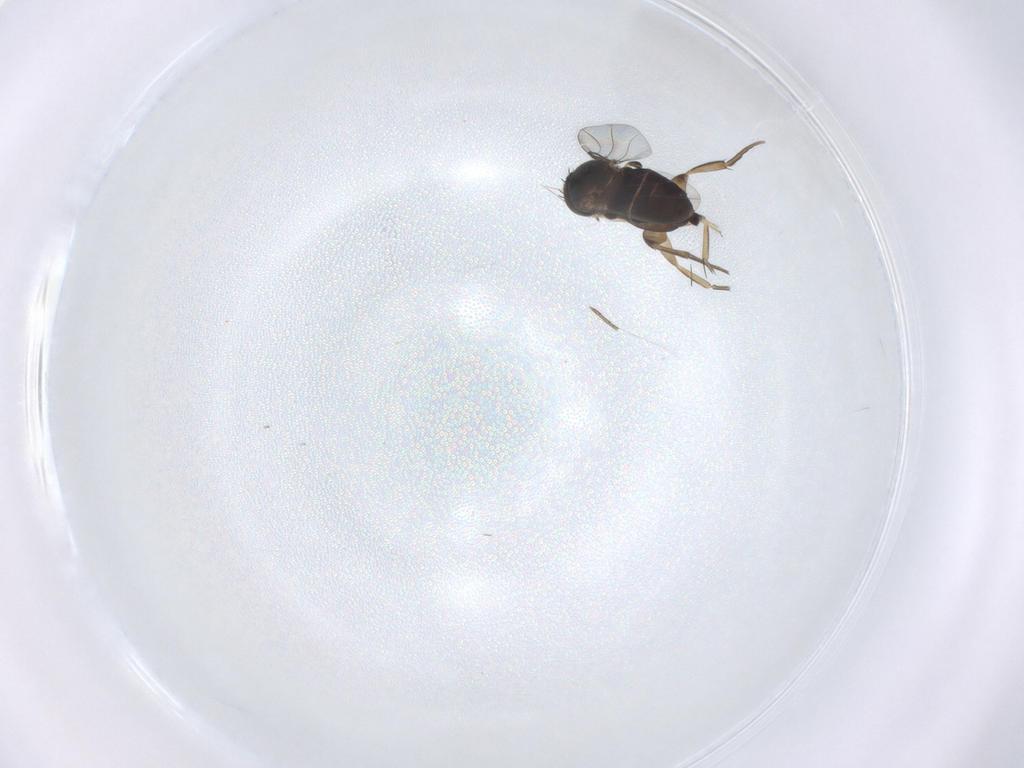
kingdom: Animalia
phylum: Arthropoda
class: Insecta
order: Diptera
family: Phoridae
